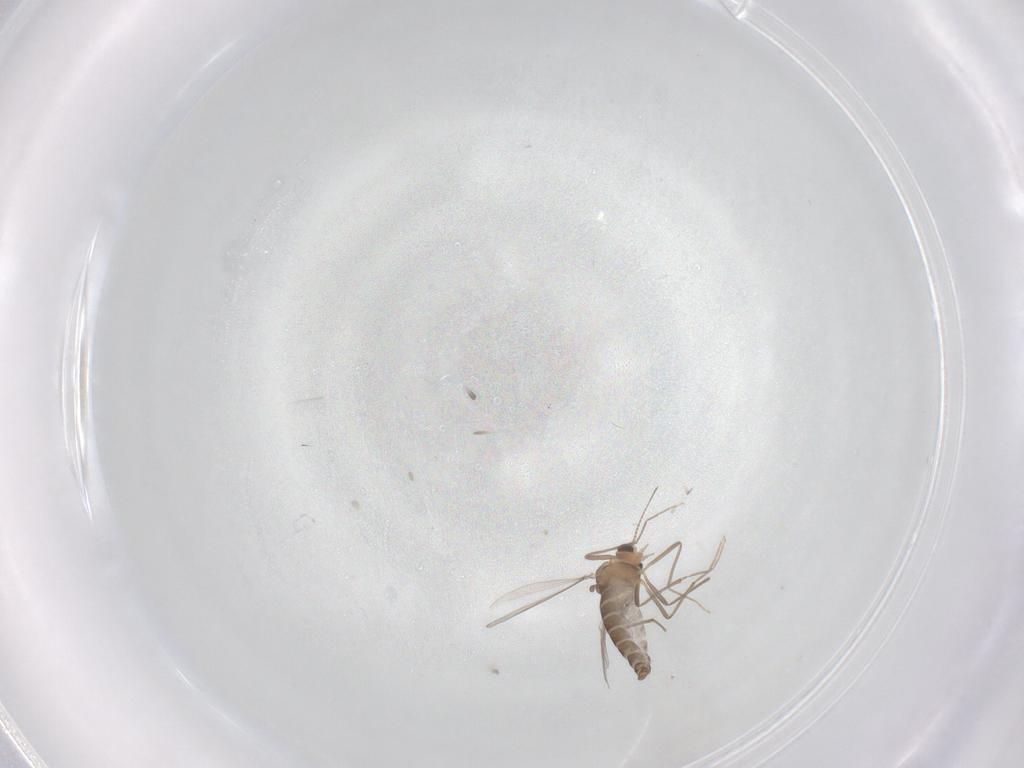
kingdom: Animalia
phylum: Arthropoda
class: Insecta
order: Diptera
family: Chironomidae
